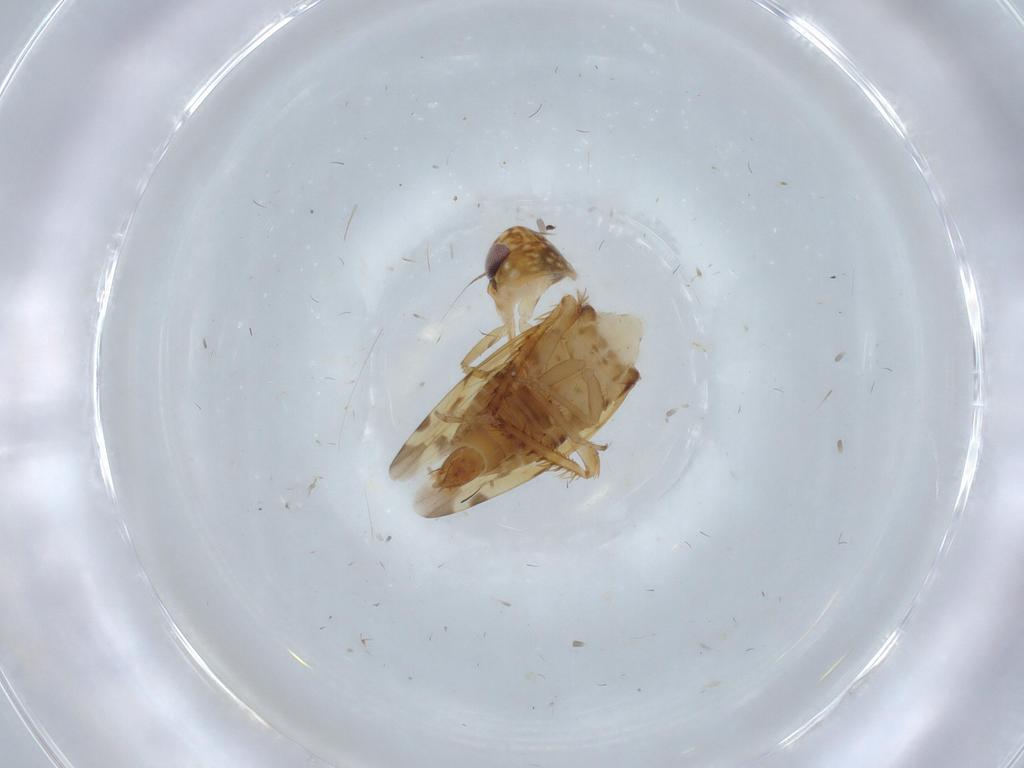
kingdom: Animalia
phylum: Arthropoda
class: Insecta
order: Hemiptera
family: Cicadellidae
